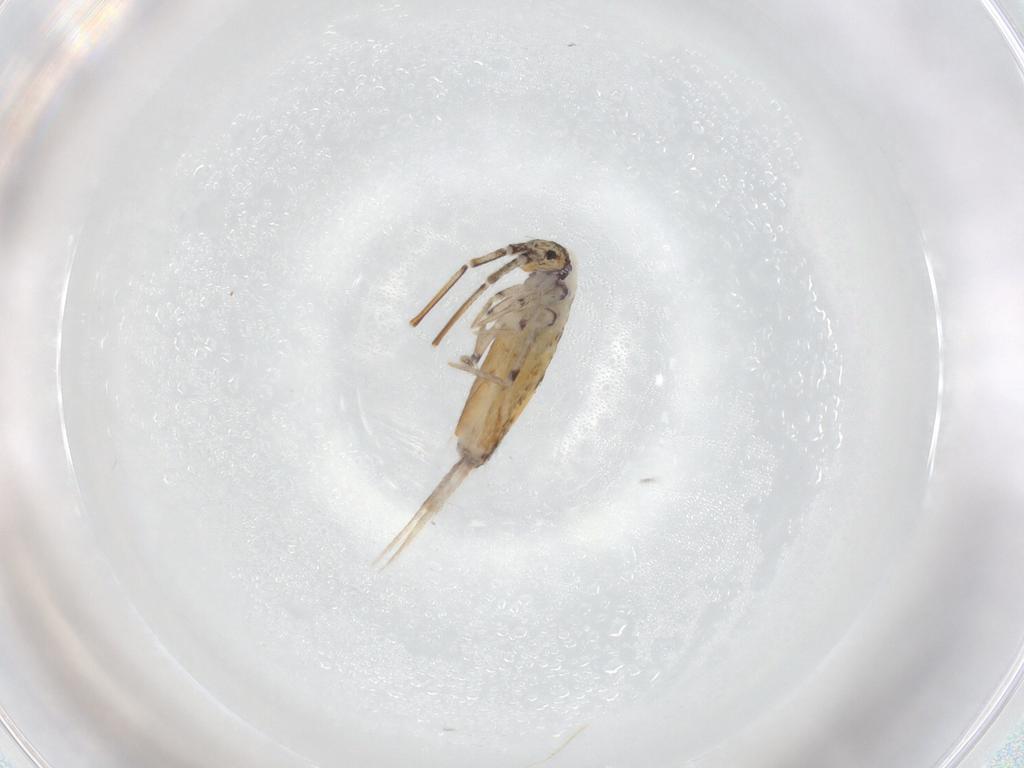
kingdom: Animalia
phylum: Arthropoda
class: Collembola
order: Entomobryomorpha
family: Entomobryidae
